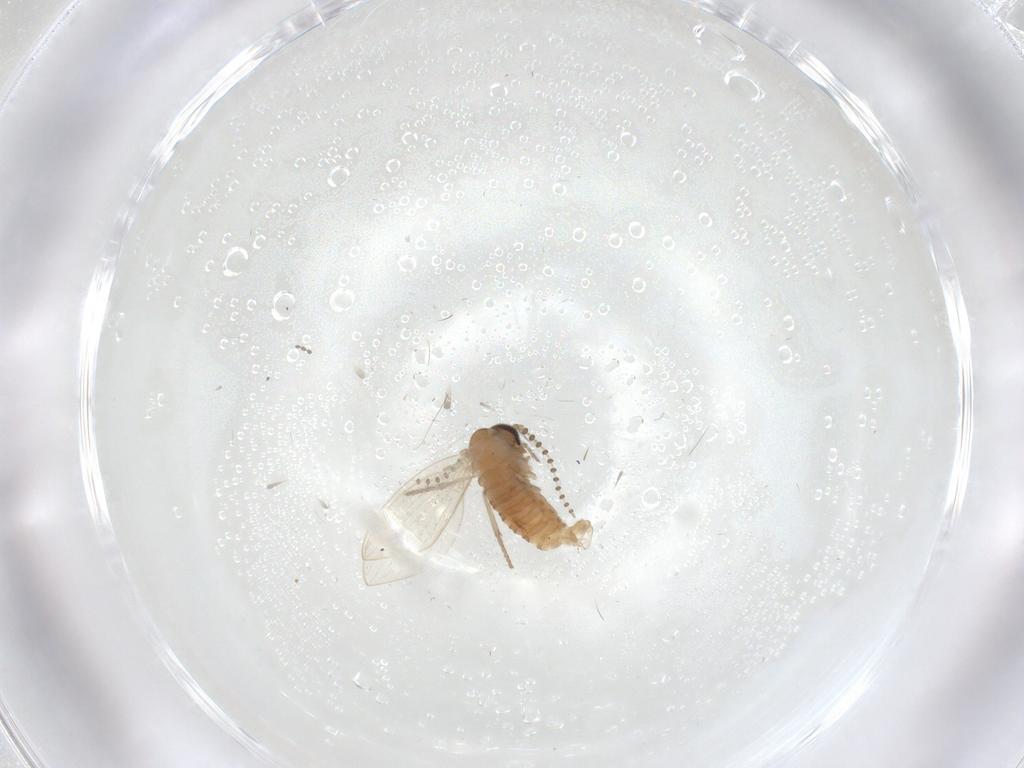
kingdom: Animalia
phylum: Arthropoda
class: Insecta
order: Diptera
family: Psychodidae
